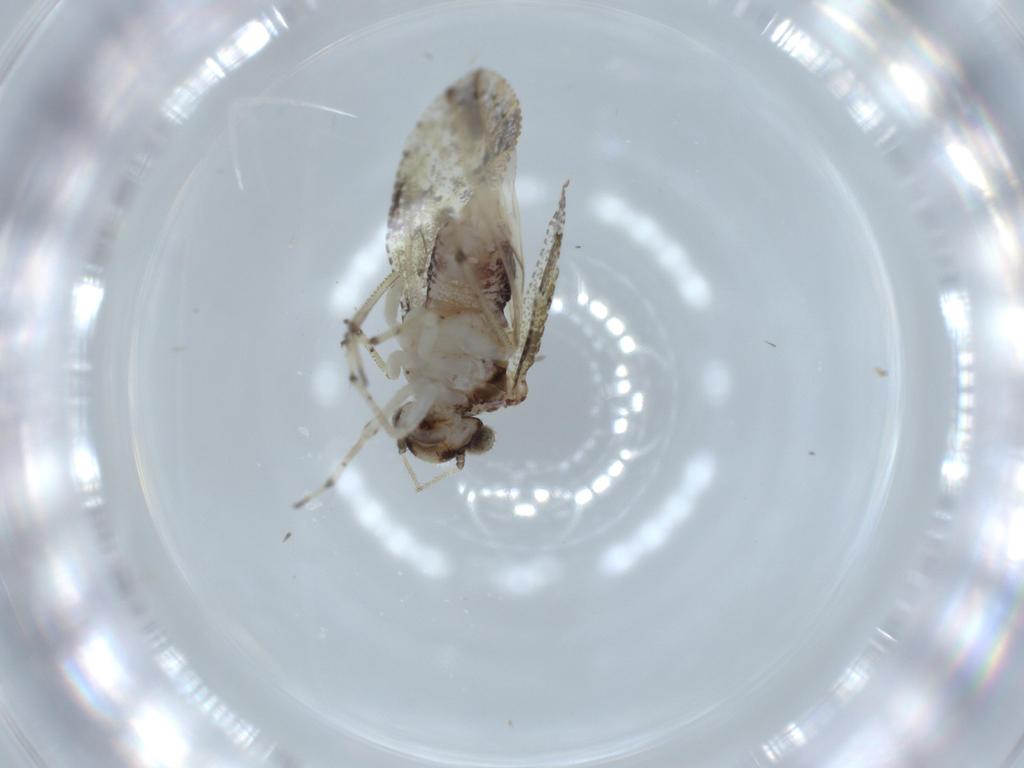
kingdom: Animalia
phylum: Arthropoda
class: Insecta
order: Psocodea
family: Psocidae
